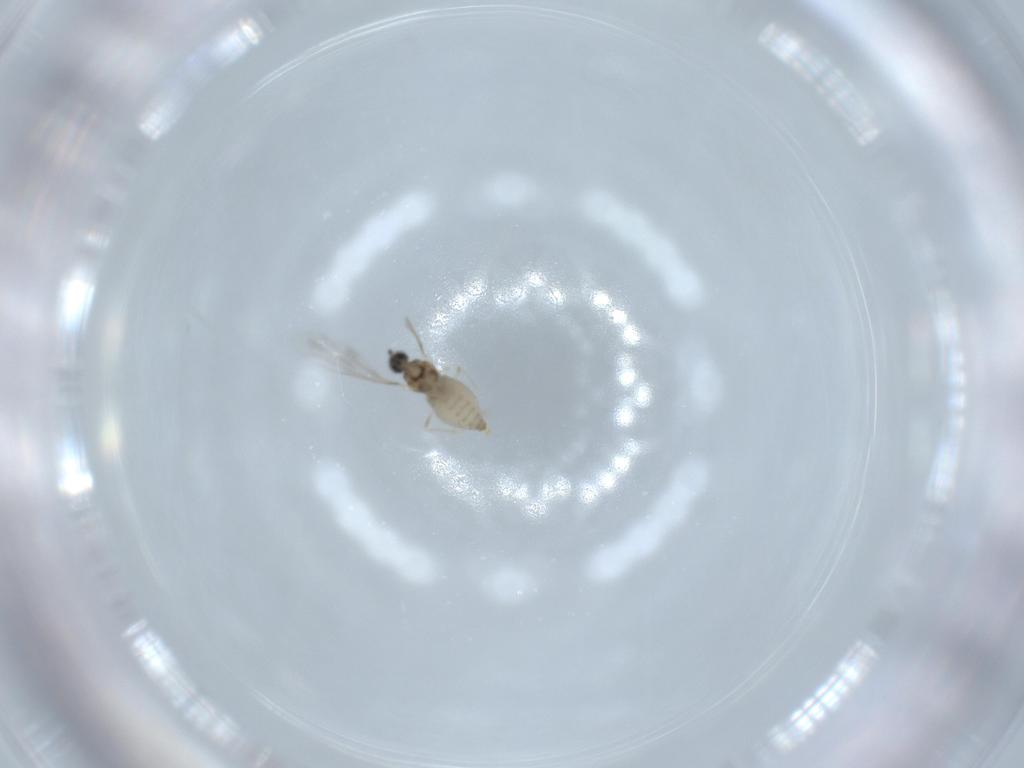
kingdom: Animalia
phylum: Arthropoda
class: Insecta
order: Diptera
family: Cecidomyiidae
